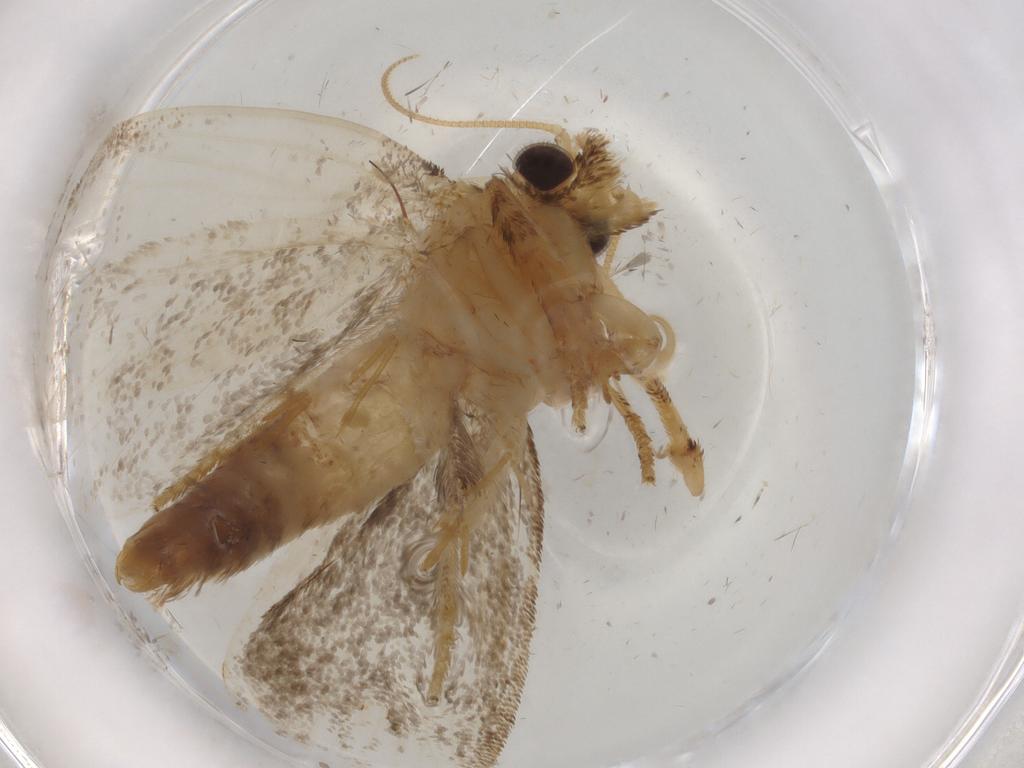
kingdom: Animalia
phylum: Arthropoda
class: Insecta
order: Lepidoptera
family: Tineidae
